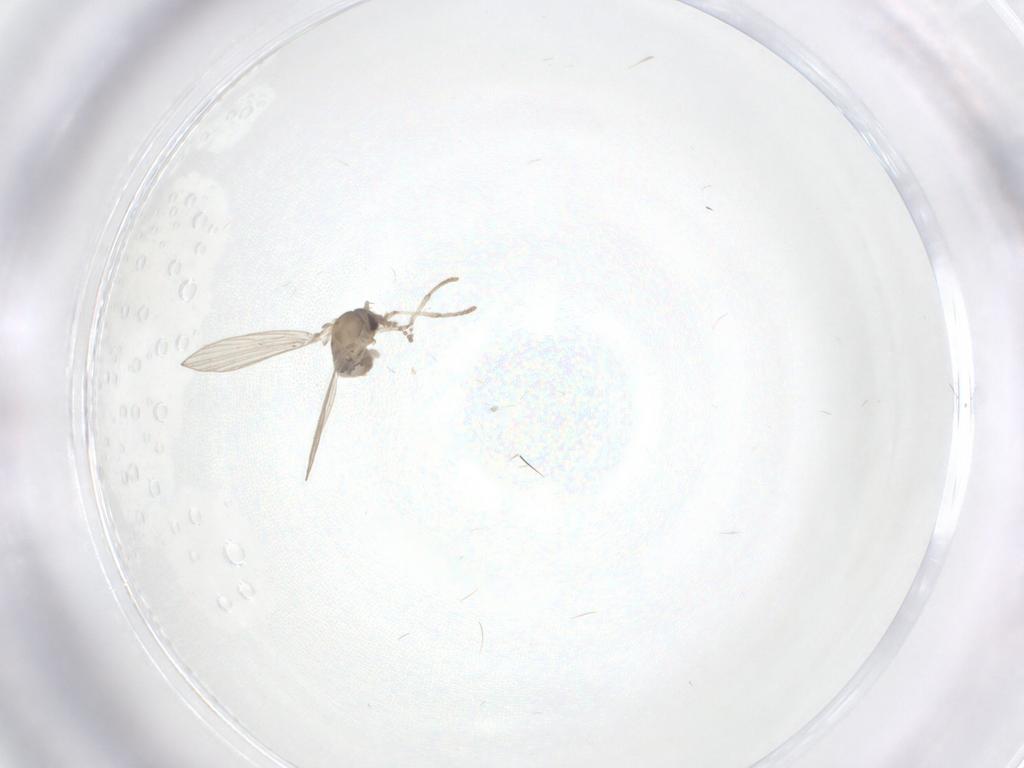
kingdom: Animalia
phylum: Arthropoda
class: Insecta
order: Diptera
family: Psychodidae
